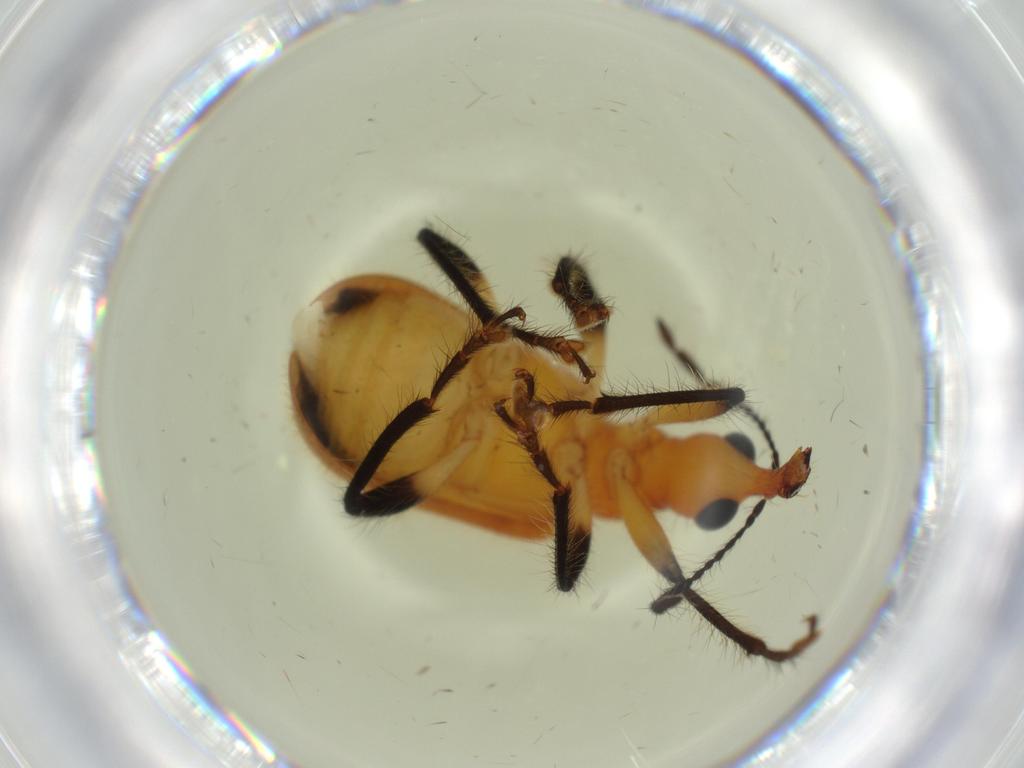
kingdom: Animalia
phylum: Arthropoda
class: Insecta
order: Coleoptera
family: Attelabidae
